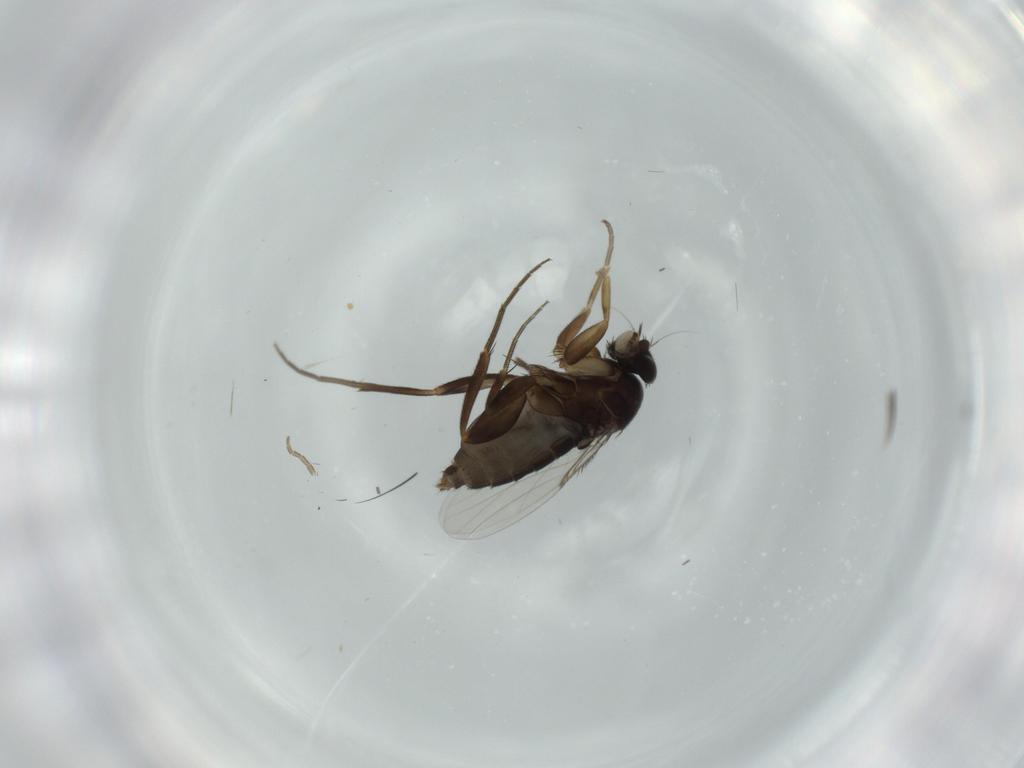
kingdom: Animalia
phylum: Arthropoda
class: Insecta
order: Diptera
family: Phoridae
